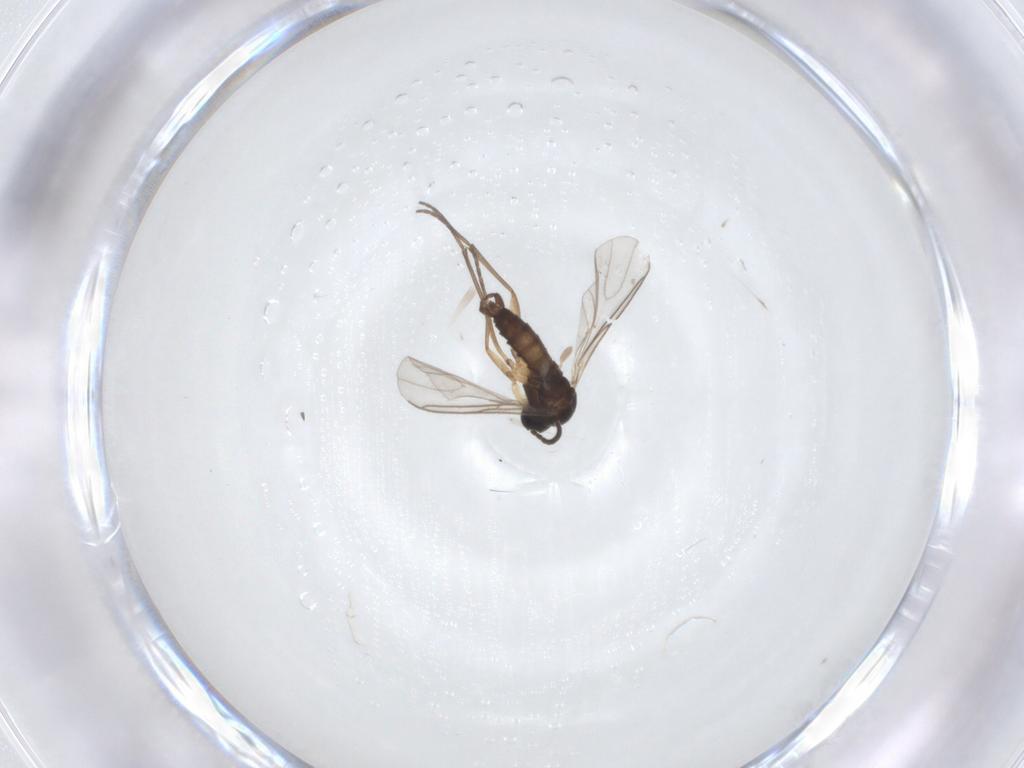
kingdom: Animalia
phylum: Arthropoda
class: Insecta
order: Diptera
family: Sciaridae
